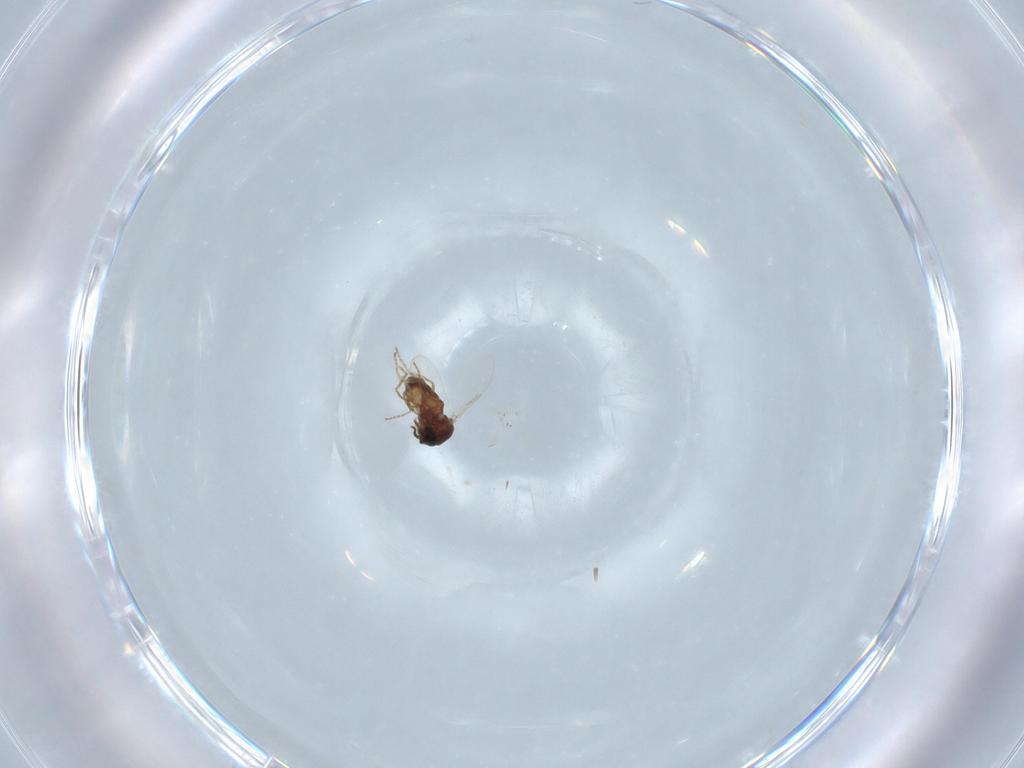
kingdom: Animalia
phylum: Arthropoda
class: Insecta
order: Diptera
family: Ceratopogonidae
